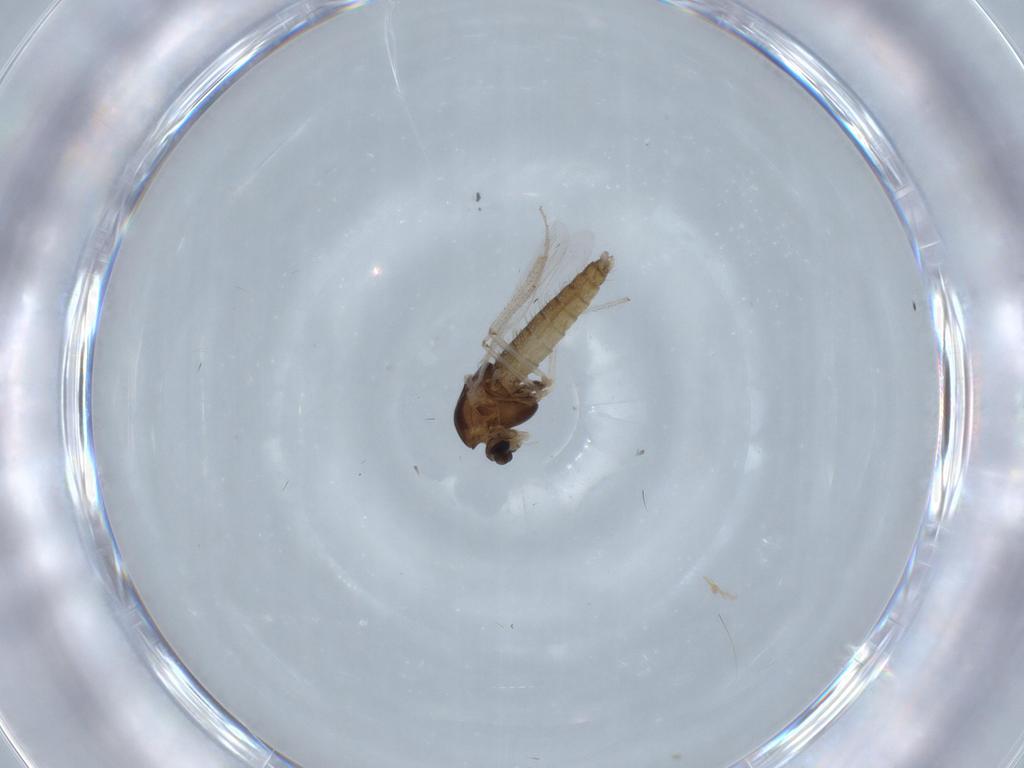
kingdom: Animalia
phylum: Arthropoda
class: Insecta
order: Diptera
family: Chironomidae
